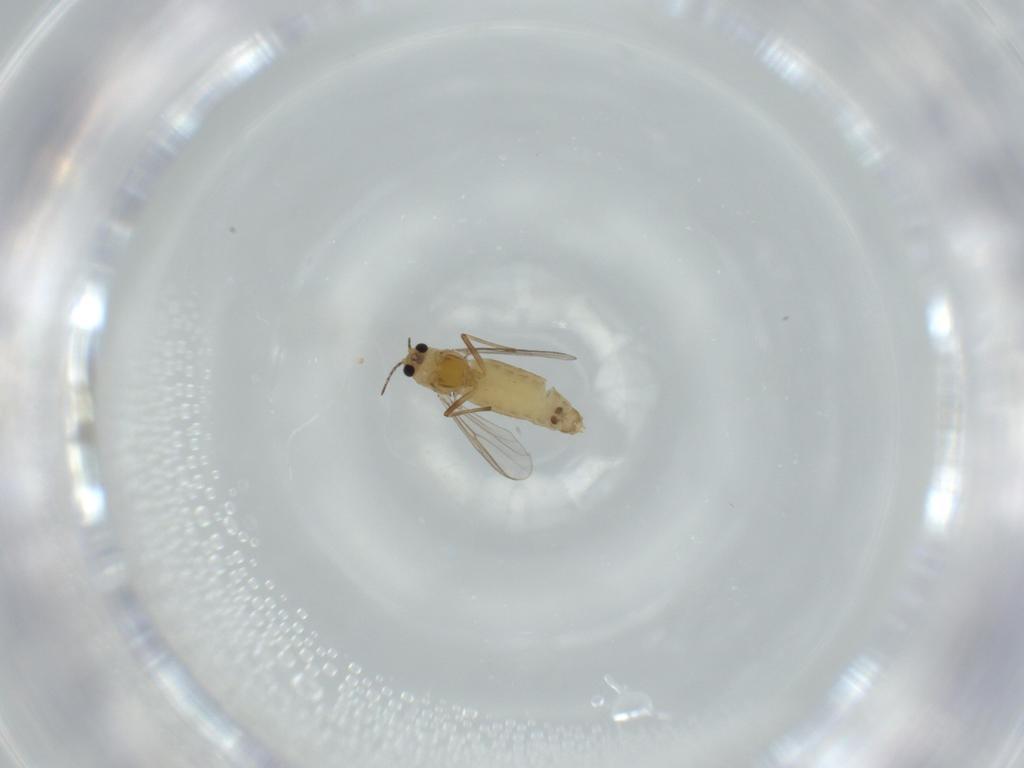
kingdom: Animalia
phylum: Arthropoda
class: Insecta
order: Diptera
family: Chironomidae
